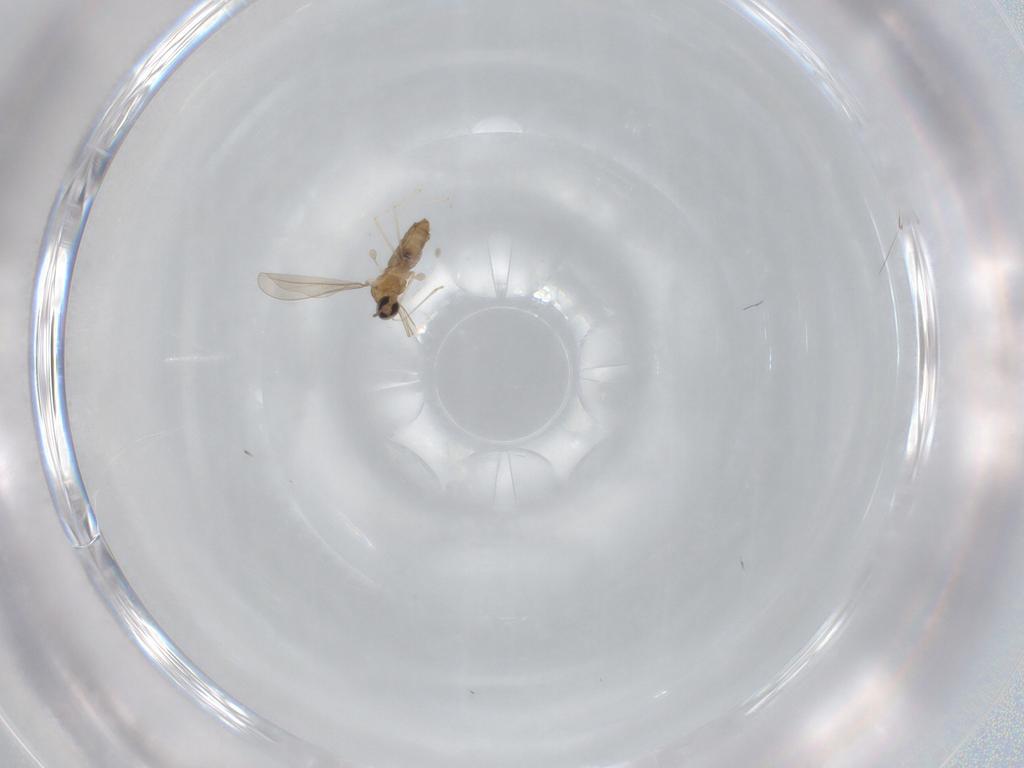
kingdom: Animalia
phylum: Arthropoda
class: Insecta
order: Diptera
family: Cecidomyiidae
